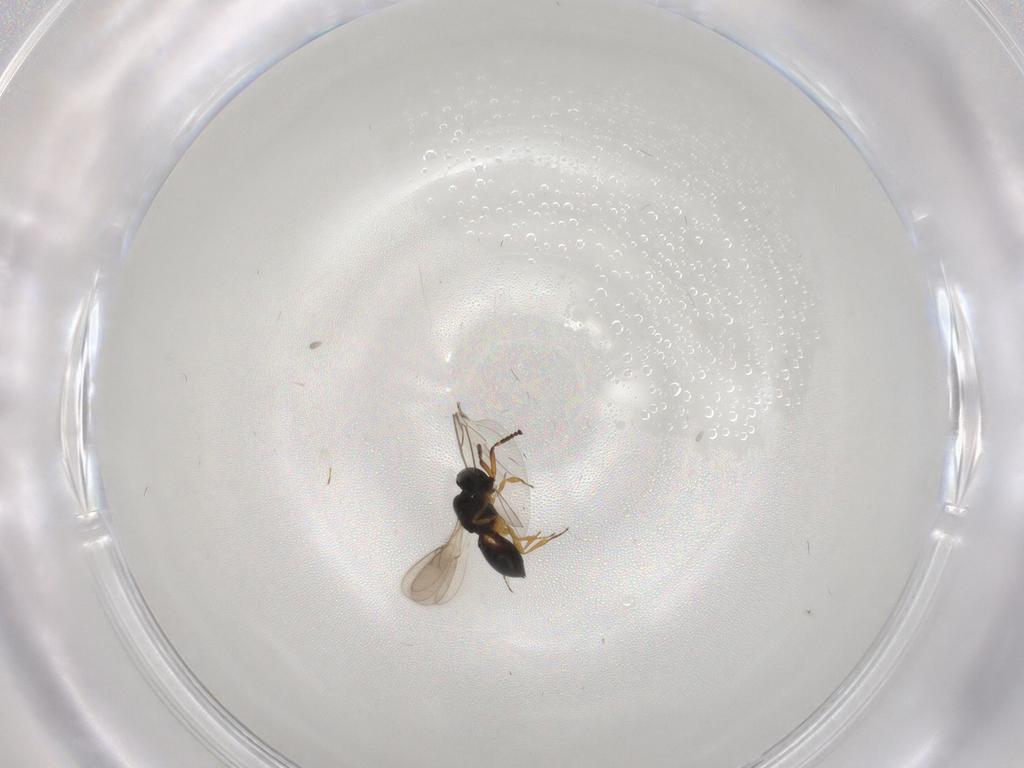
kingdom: Animalia
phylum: Arthropoda
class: Insecta
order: Hymenoptera
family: Scelionidae
